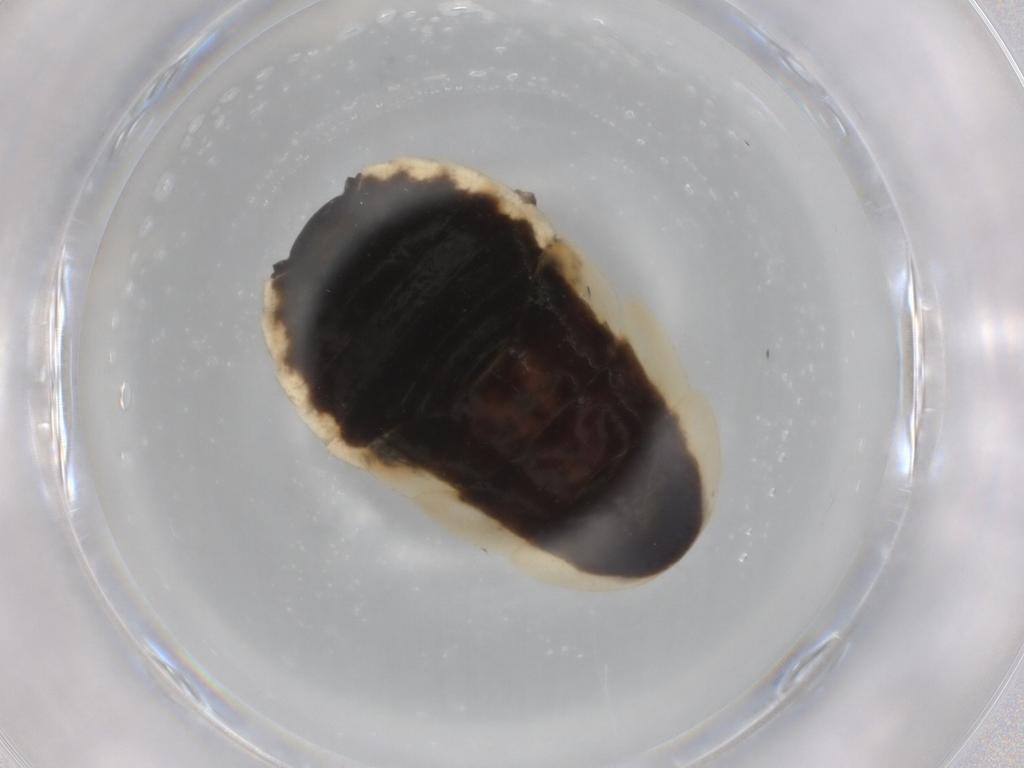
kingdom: Animalia
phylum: Arthropoda
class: Insecta
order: Blattodea
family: Ectobiidae
